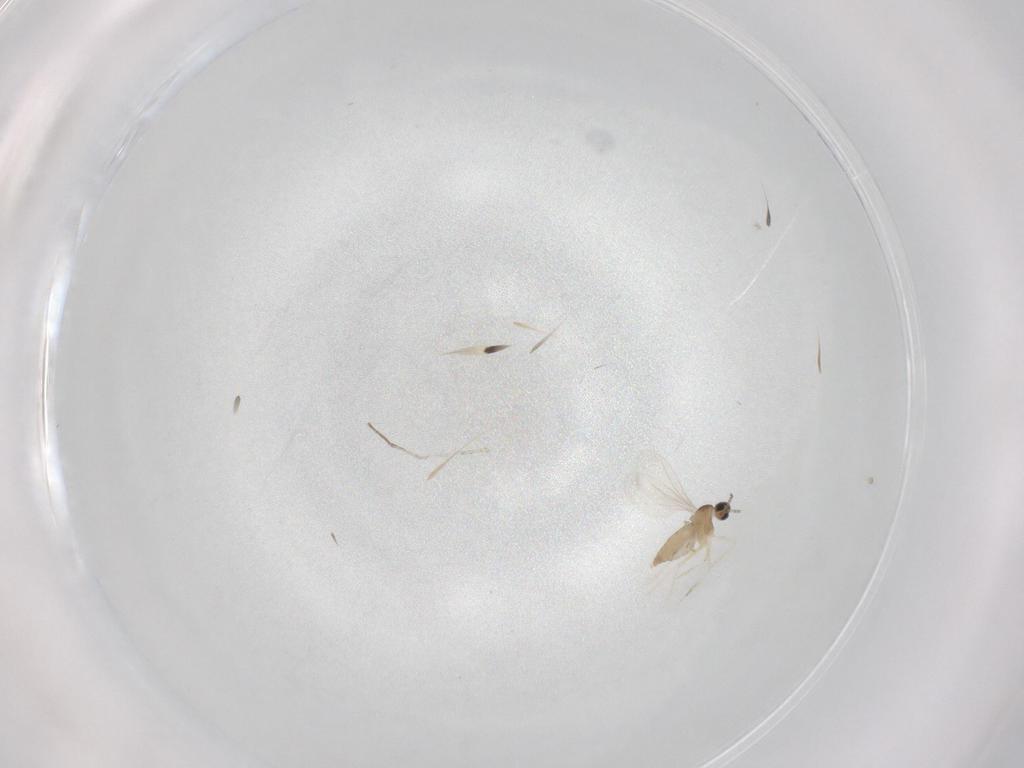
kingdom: Animalia
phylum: Arthropoda
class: Insecta
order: Diptera
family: Cecidomyiidae
